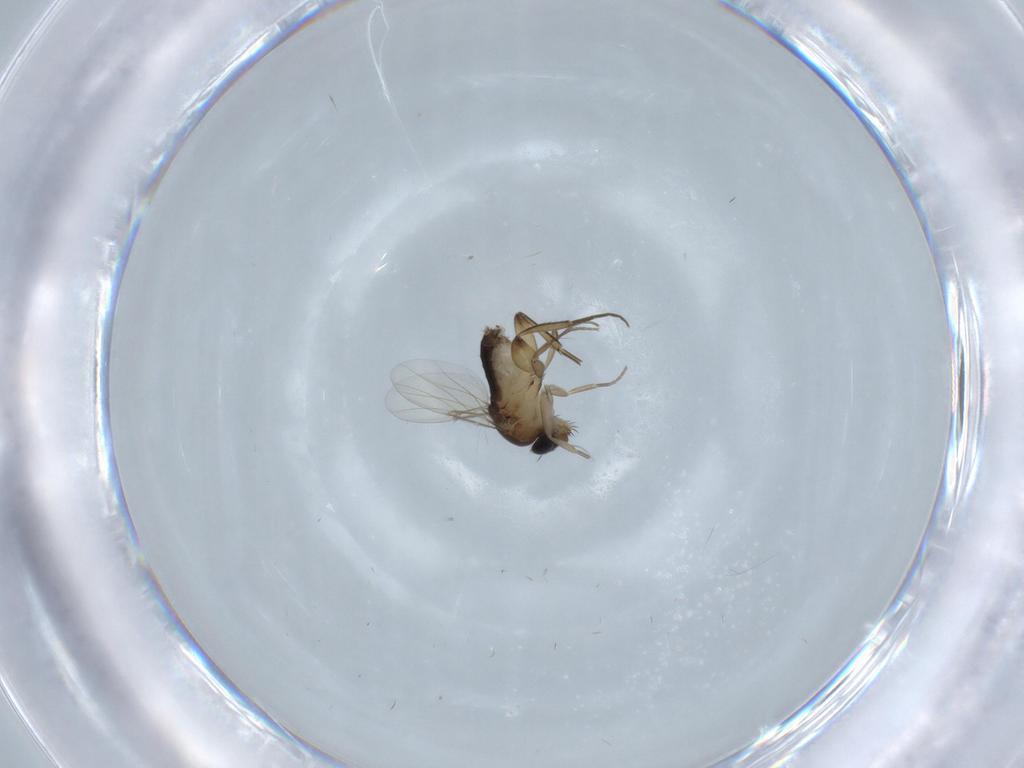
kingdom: Animalia
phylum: Arthropoda
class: Insecta
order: Diptera
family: Phoridae
